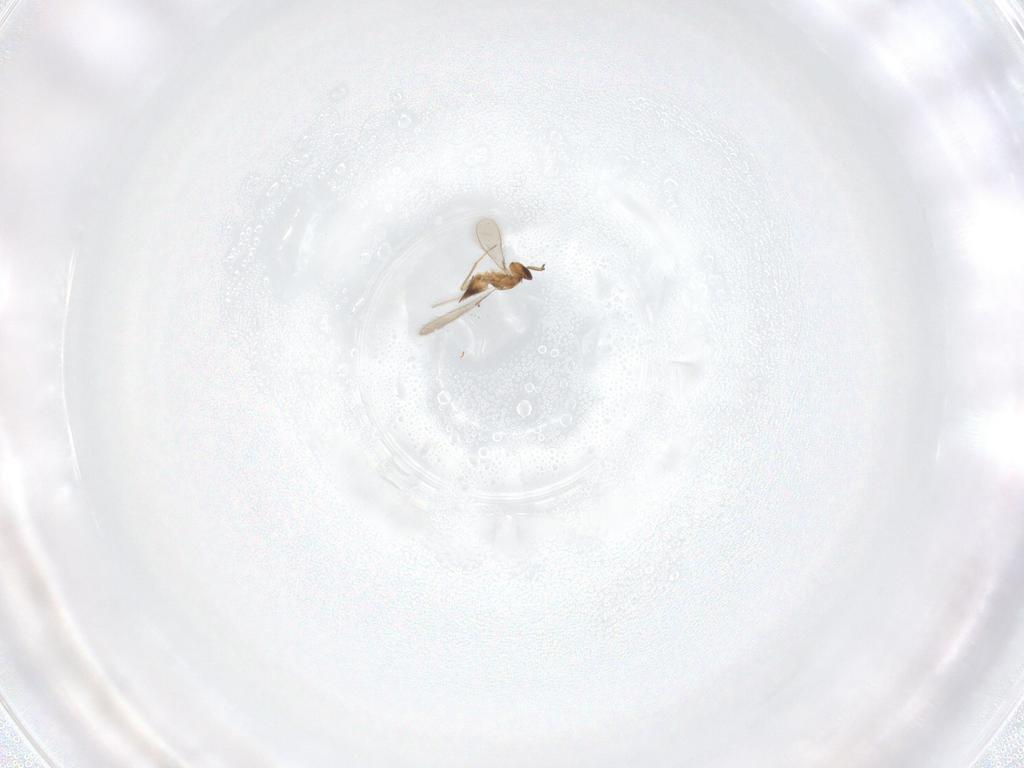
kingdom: Animalia
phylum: Arthropoda
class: Insecta
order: Hymenoptera
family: Mymaridae
